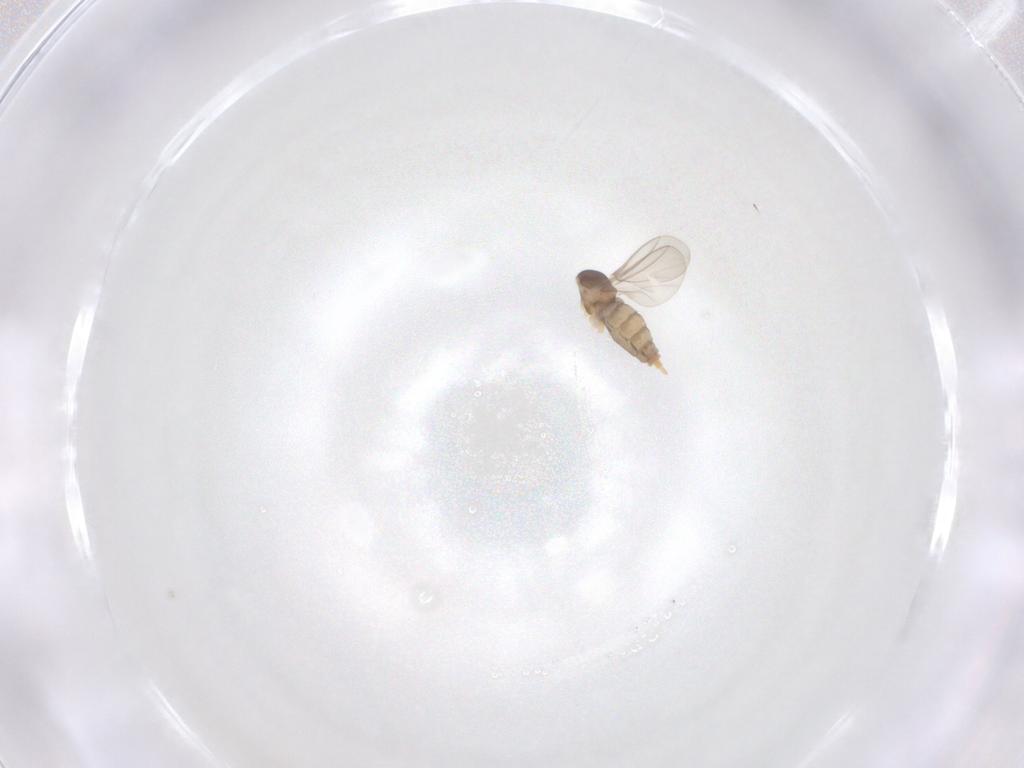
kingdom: Animalia
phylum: Arthropoda
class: Insecta
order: Diptera
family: Cecidomyiidae
